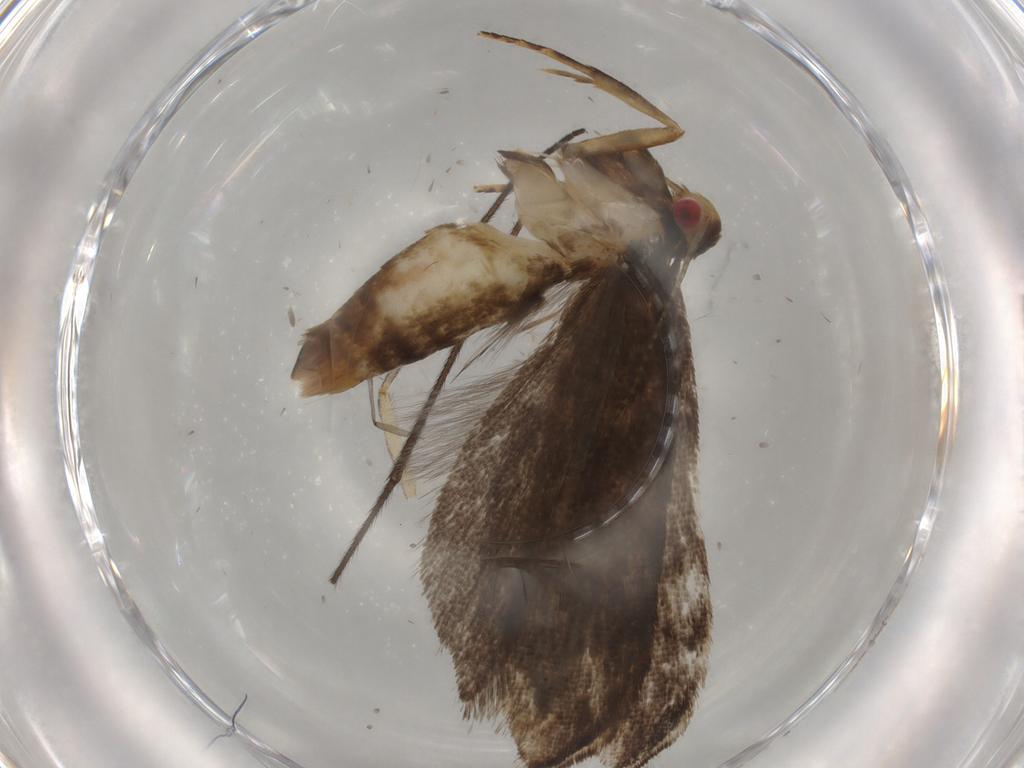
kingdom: Animalia
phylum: Arthropoda
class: Insecta
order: Lepidoptera
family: Gelechiidae
